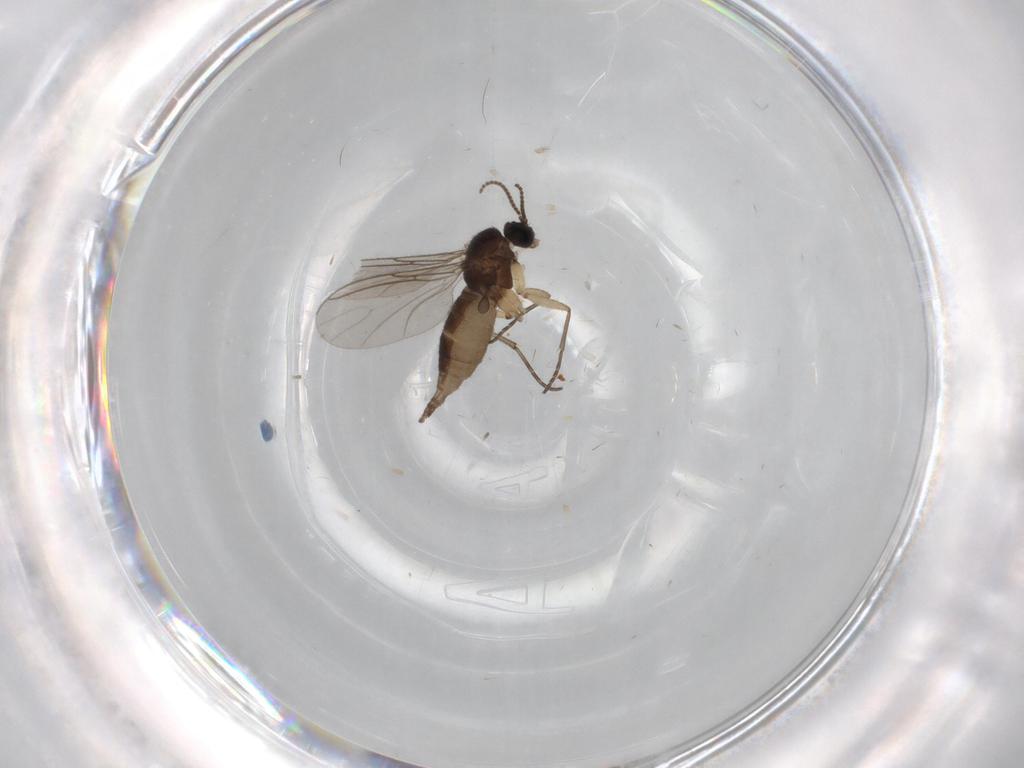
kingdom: Animalia
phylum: Arthropoda
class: Insecta
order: Diptera
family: Sciaridae
